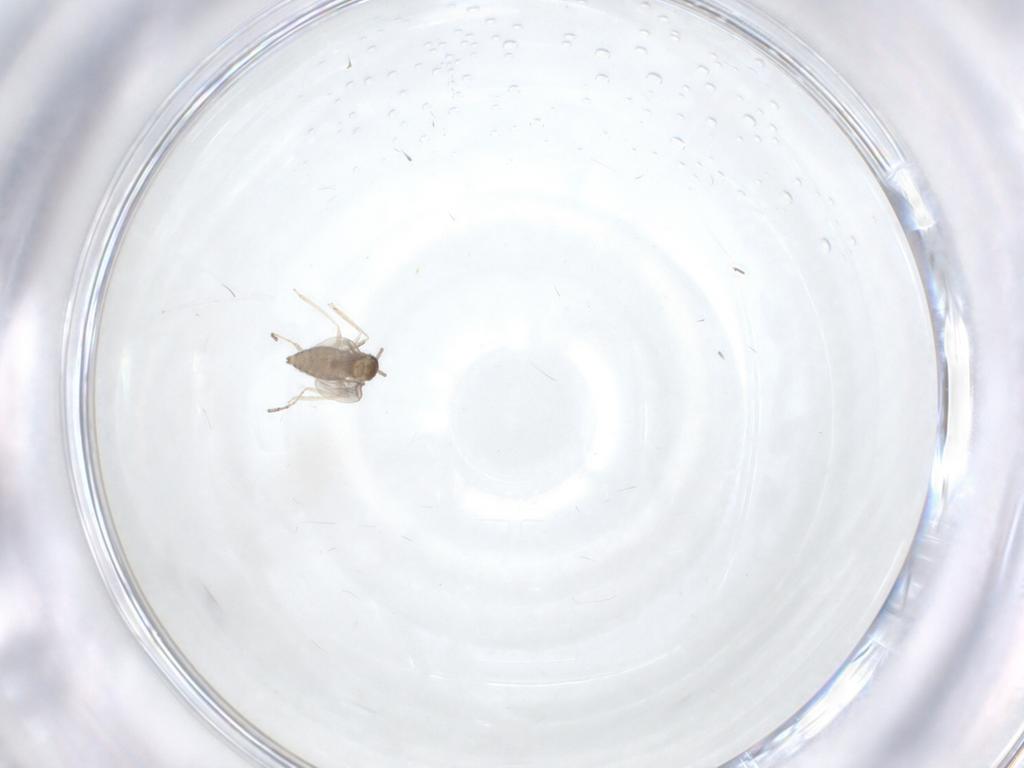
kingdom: Animalia
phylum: Arthropoda
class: Insecta
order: Diptera
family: Cecidomyiidae
